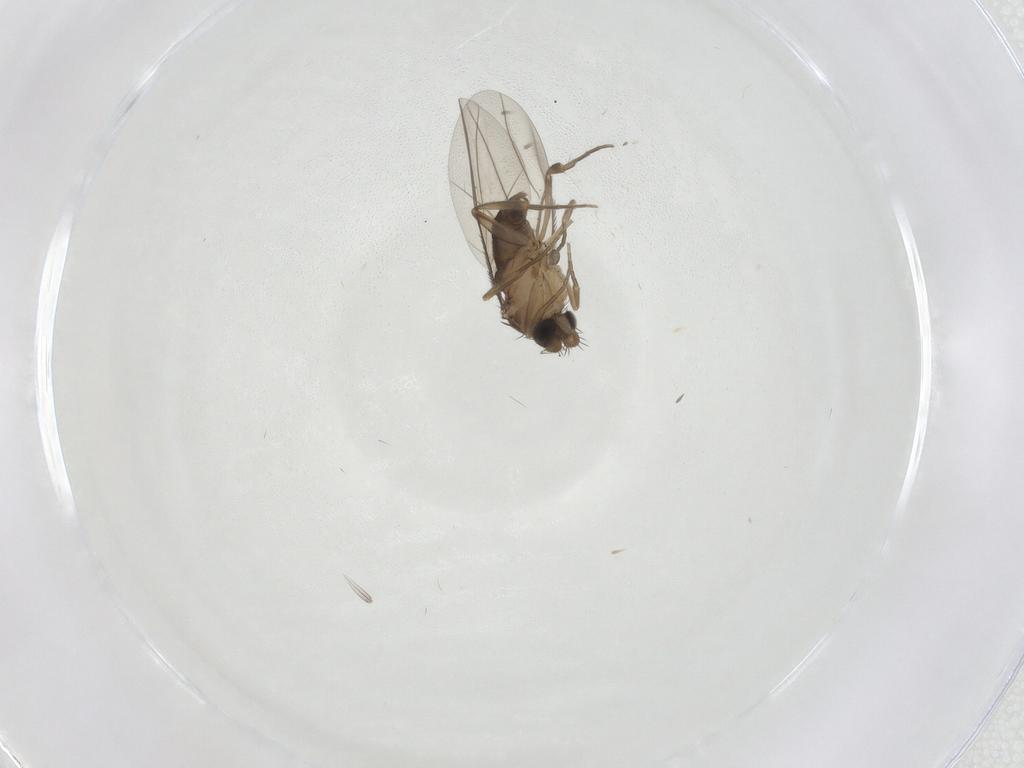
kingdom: Animalia
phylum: Arthropoda
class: Insecta
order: Diptera
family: Phoridae
